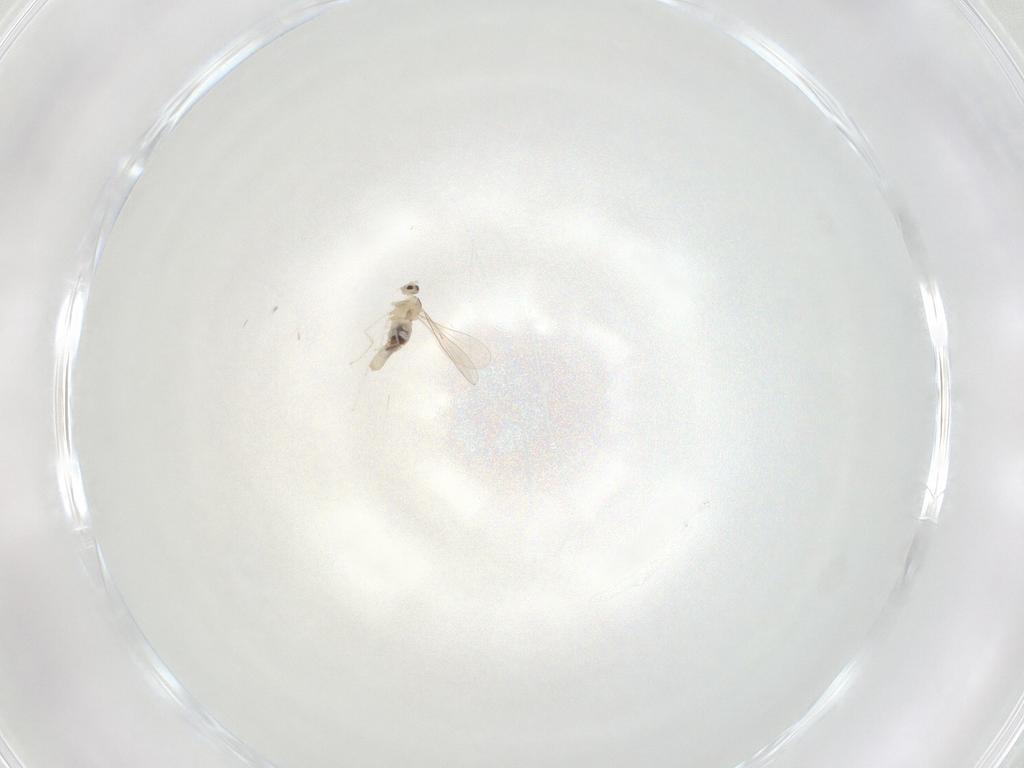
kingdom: Animalia
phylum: Arthropoda
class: Insecta
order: Diptera
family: Cecidomyiidae
